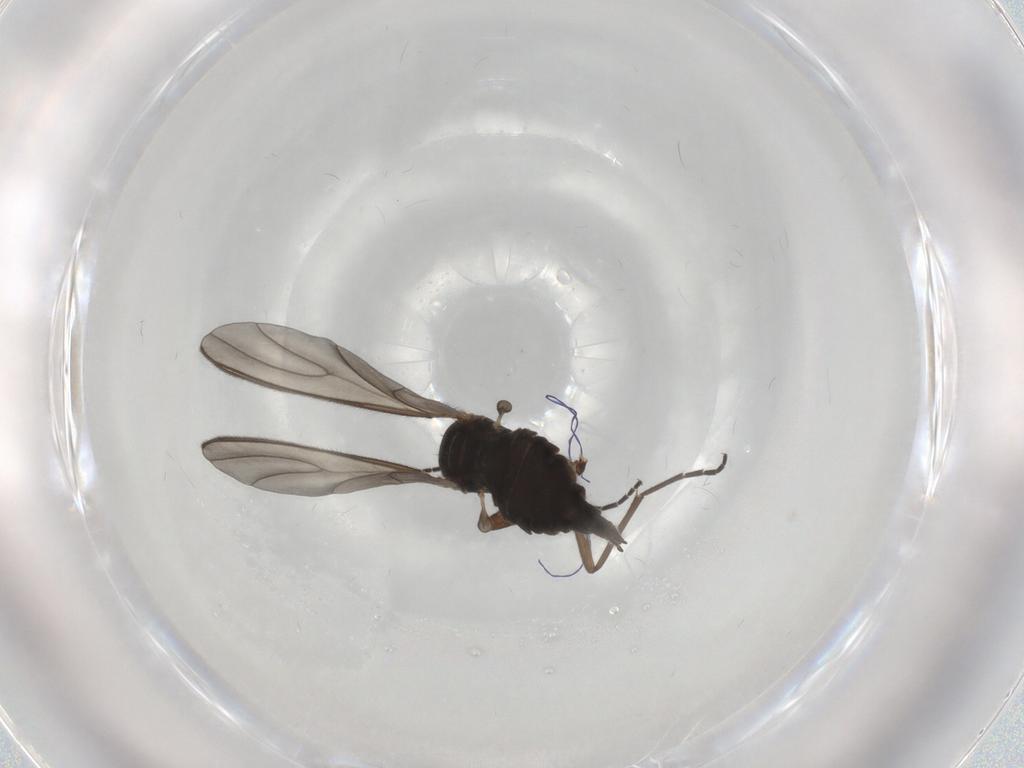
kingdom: Animalia
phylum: Arthropoda
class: Insecta
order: Diptera
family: Sciaridae
